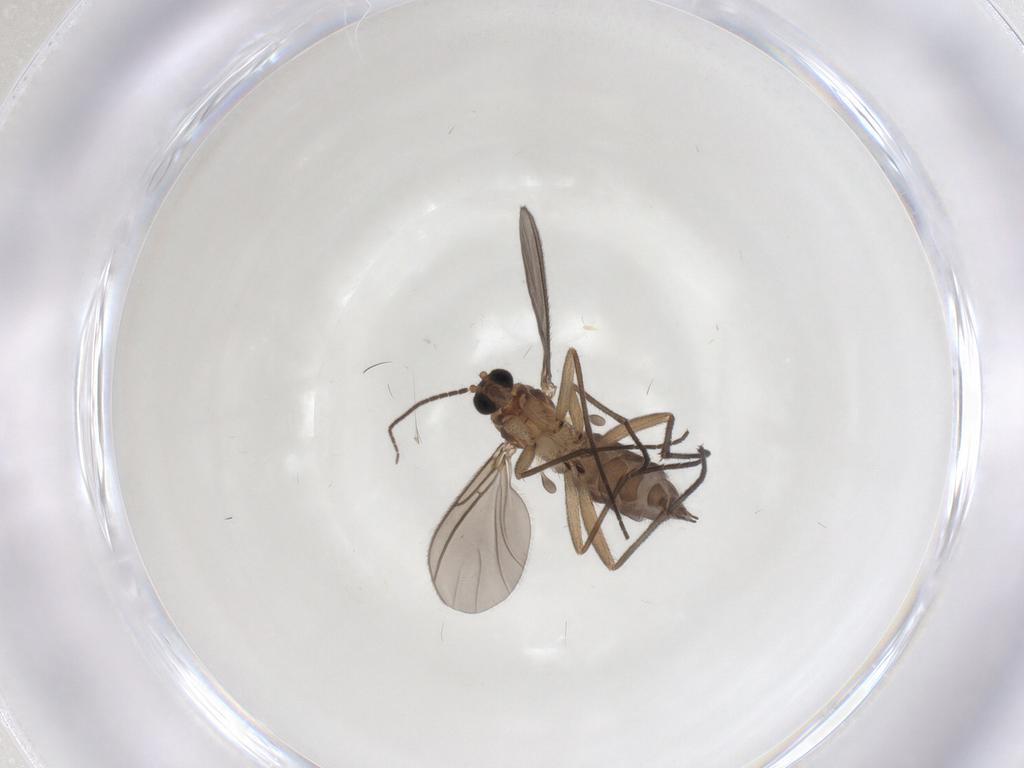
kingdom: Animalia
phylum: Arthropoda
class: Insecta
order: Diptera
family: Sciaridae
